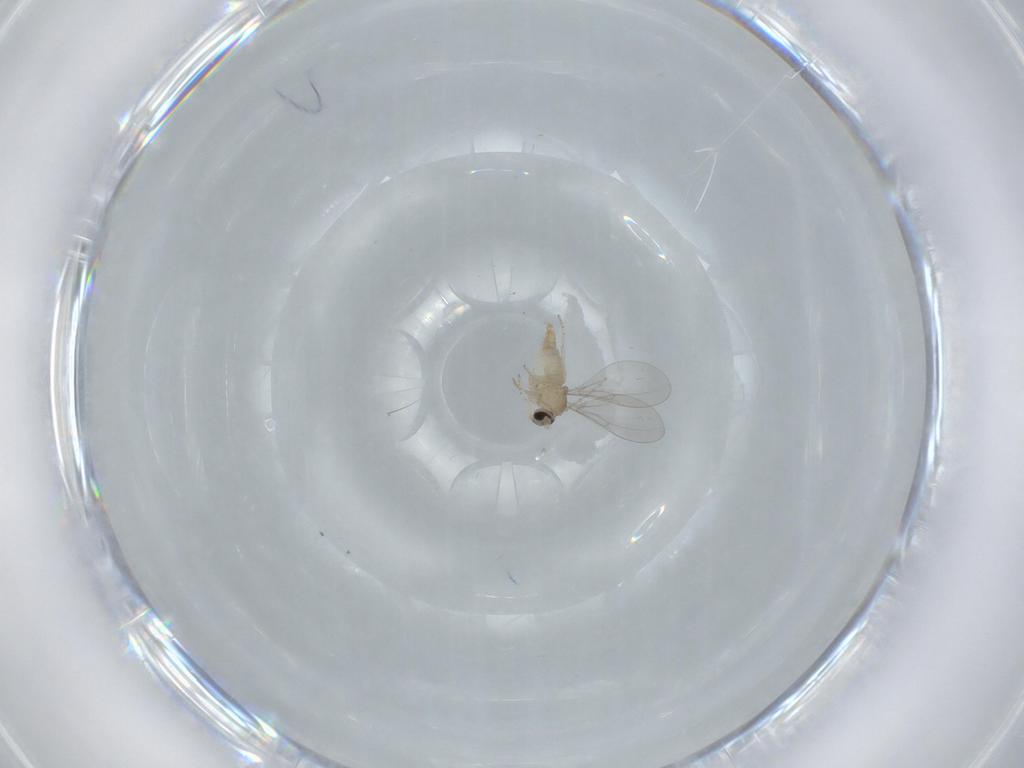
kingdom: Animalia
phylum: Arthropoda
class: Insecta
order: Diptera
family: Cecidomyiidae
